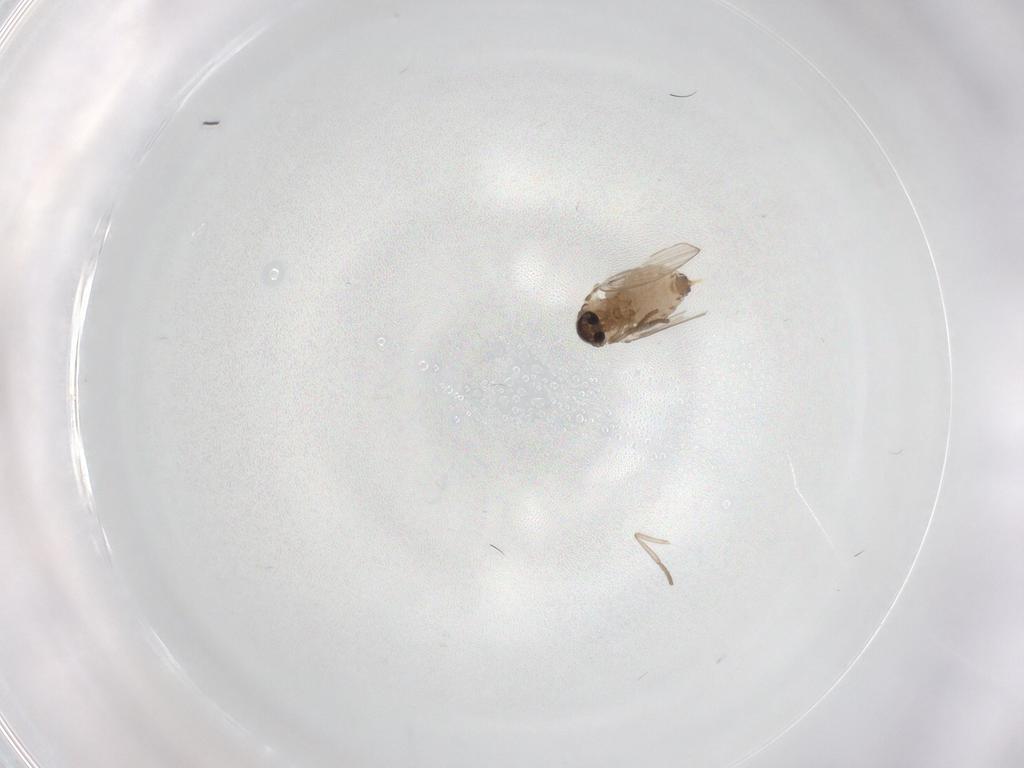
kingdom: Animalia
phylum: Arthropoda
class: Insecta
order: Diptera
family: Psychodidae
